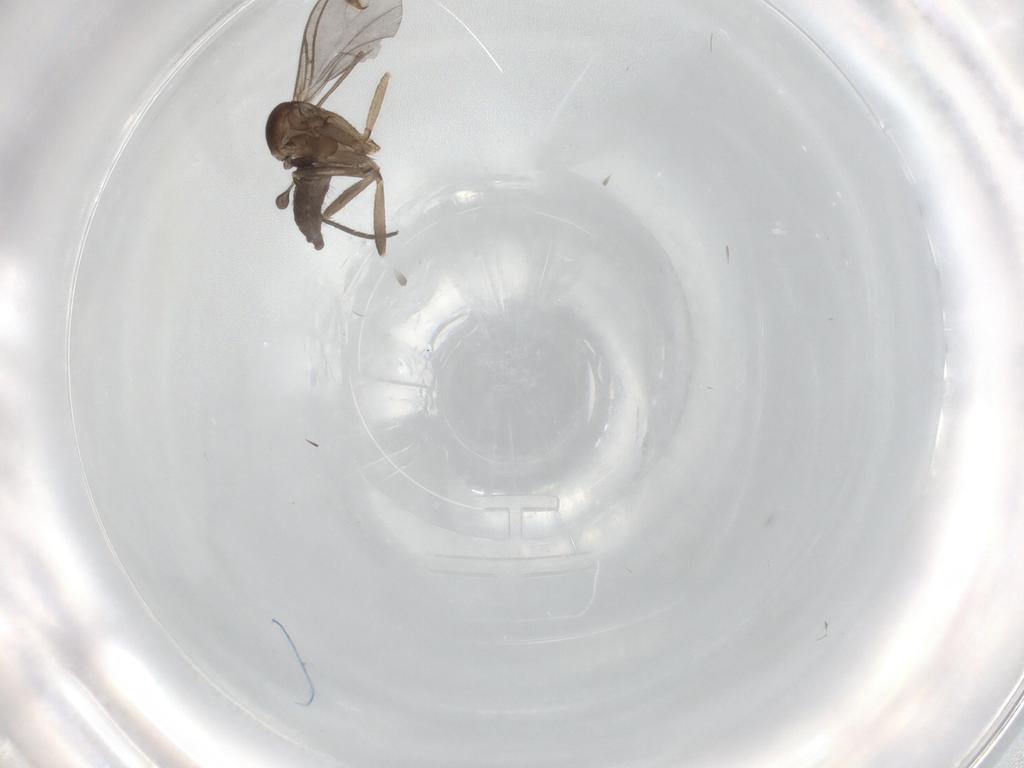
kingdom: Animalia
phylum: Arthropoda
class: Insecta
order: Diptera
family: Sciaridae
